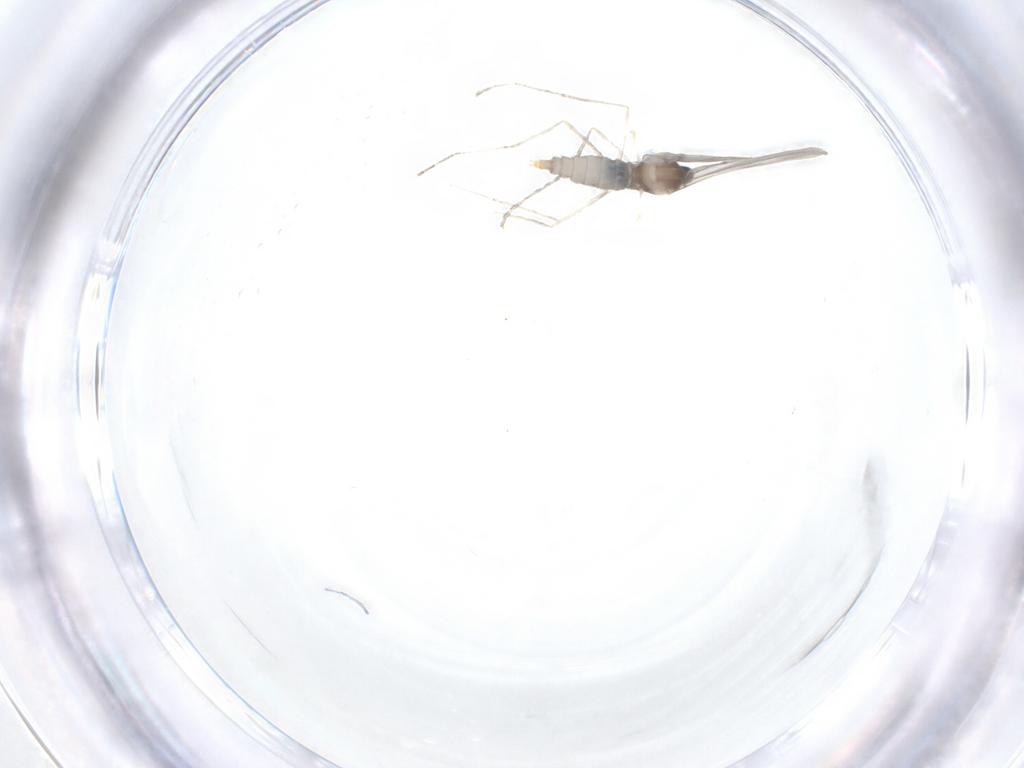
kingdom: Animalia
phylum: Arthropoda
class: Insecta
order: Diptera
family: Cecidomyiidae
